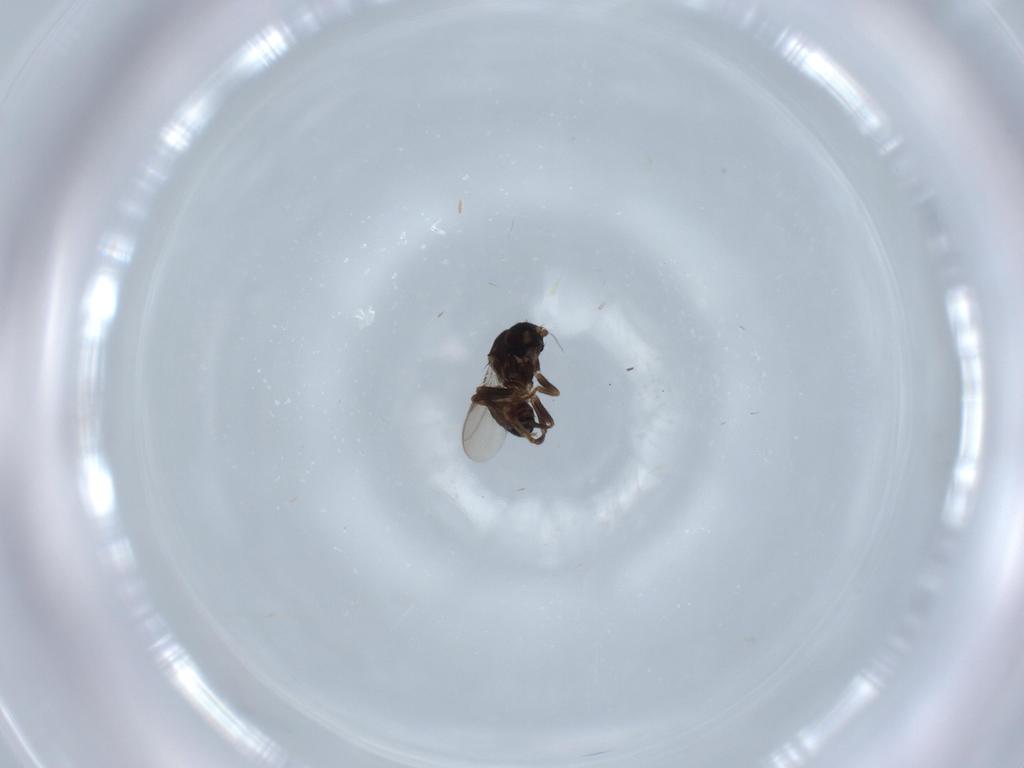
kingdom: Animalia
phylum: Arthropoda
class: Insecta
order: Diptera
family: Sphaeroceridae
